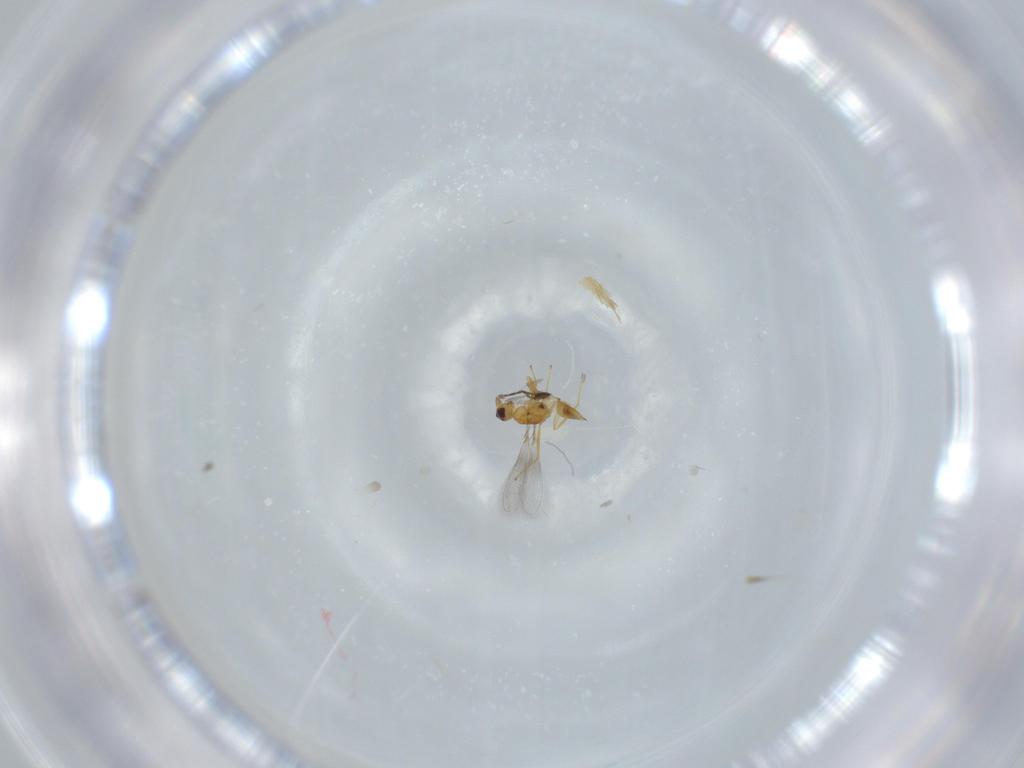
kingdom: Animalia
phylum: Arthropoda
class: Insecta
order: Hymenoptera
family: Mymaridae
